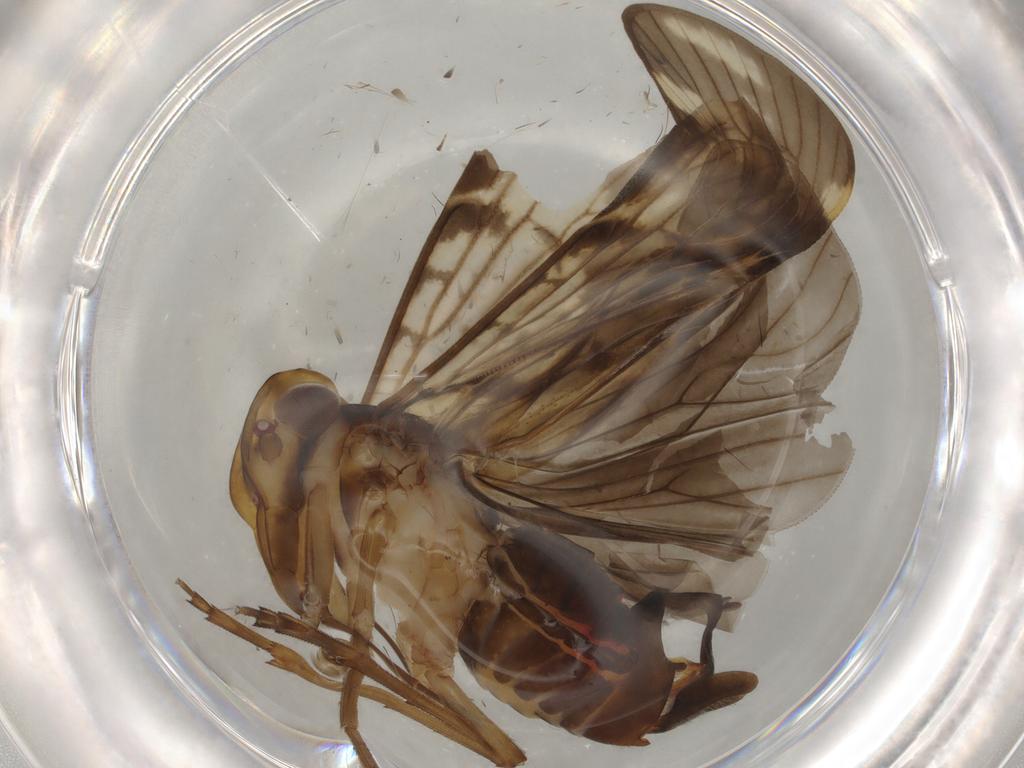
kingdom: Animalia
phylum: Arthropoda
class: Insecta
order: Hemiptera
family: Cixiidae
